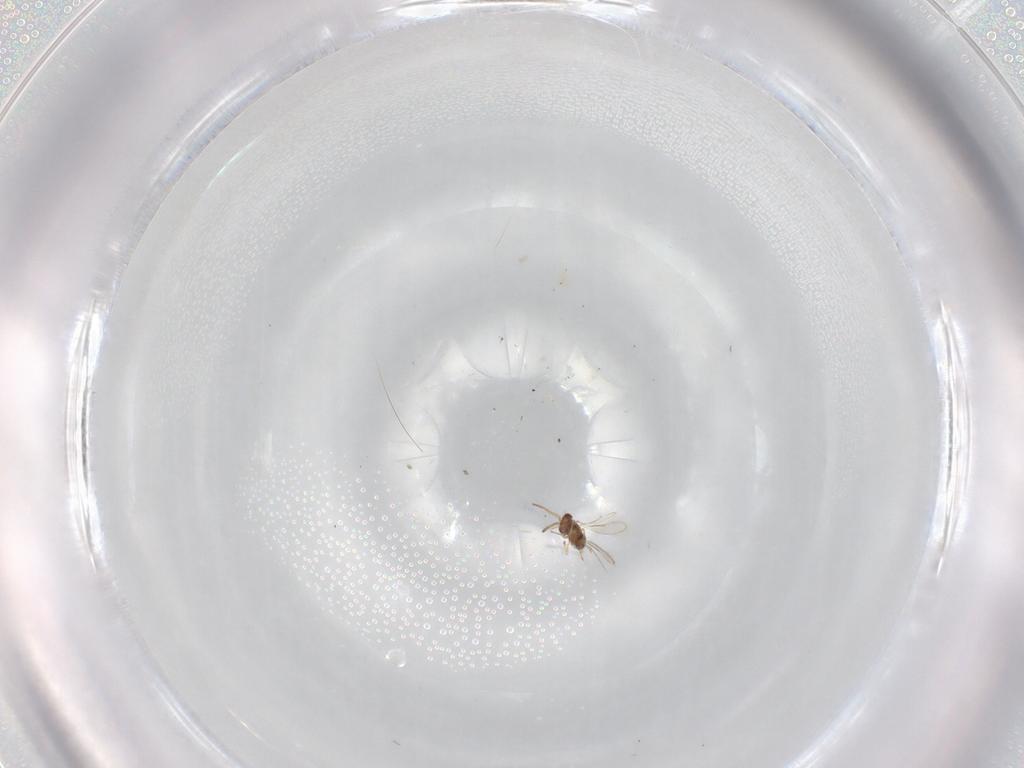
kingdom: Animalia
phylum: Arthropoda
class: Insecta
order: Hymenoptera
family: Aphelinidae
